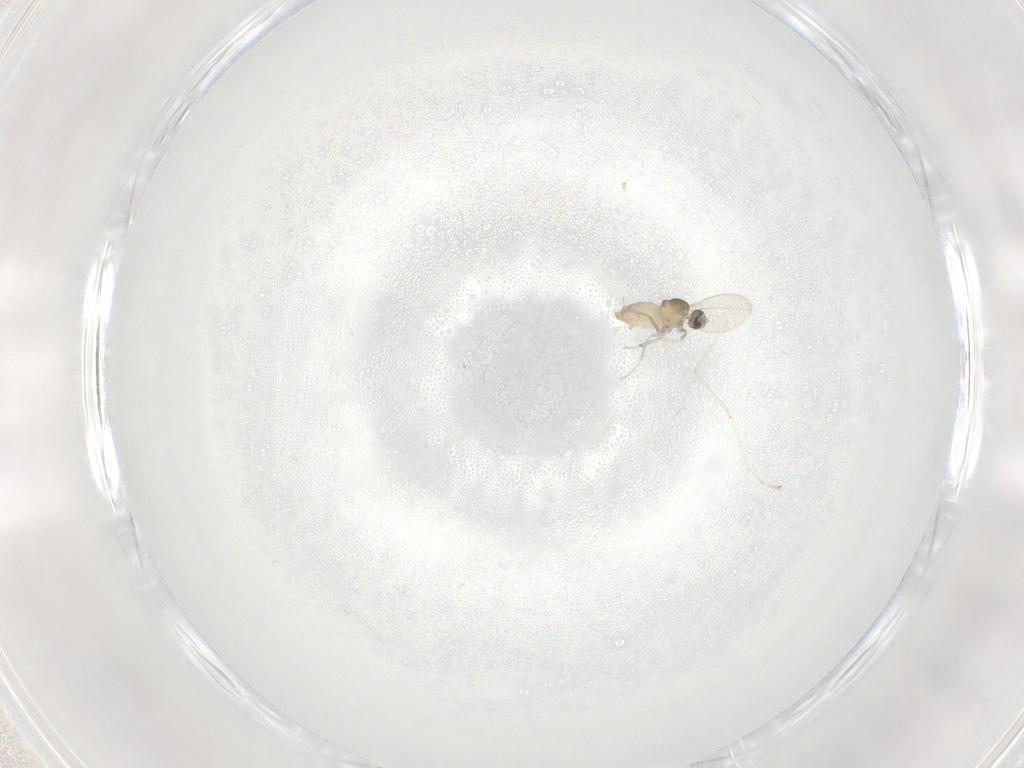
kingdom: Animalia
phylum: Arthropoda
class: Insecta
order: Diptera
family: Cecidomyiidae
